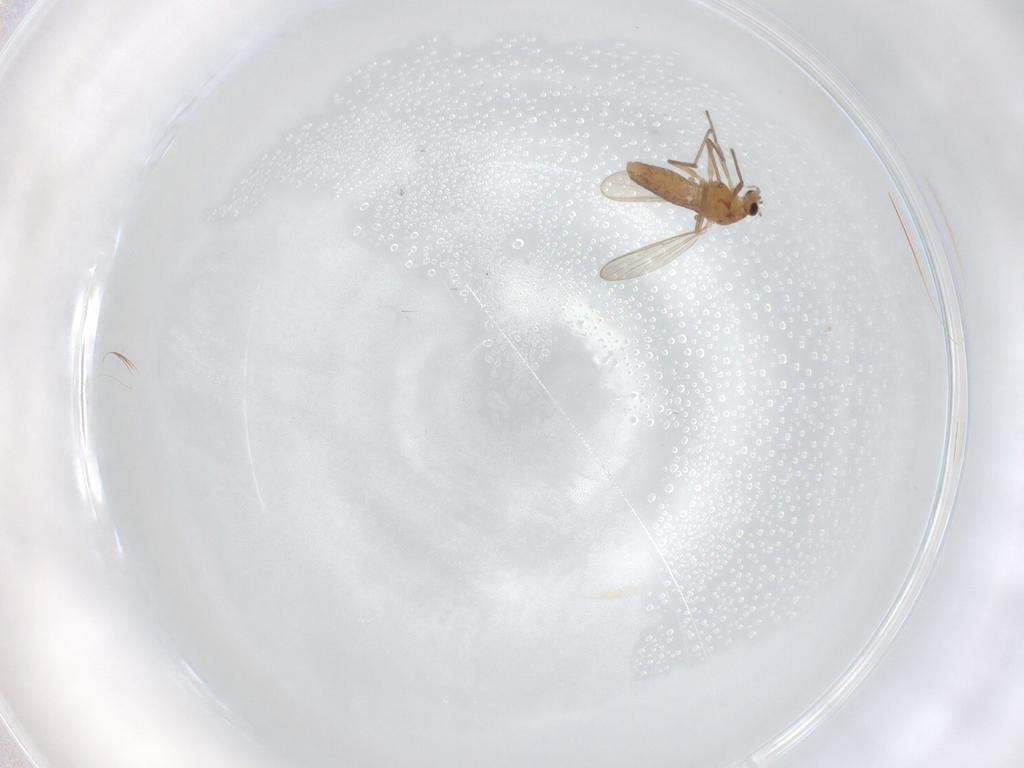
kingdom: Animalia
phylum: Arthropoda
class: Insecta
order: Diptera
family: Chironomidae
